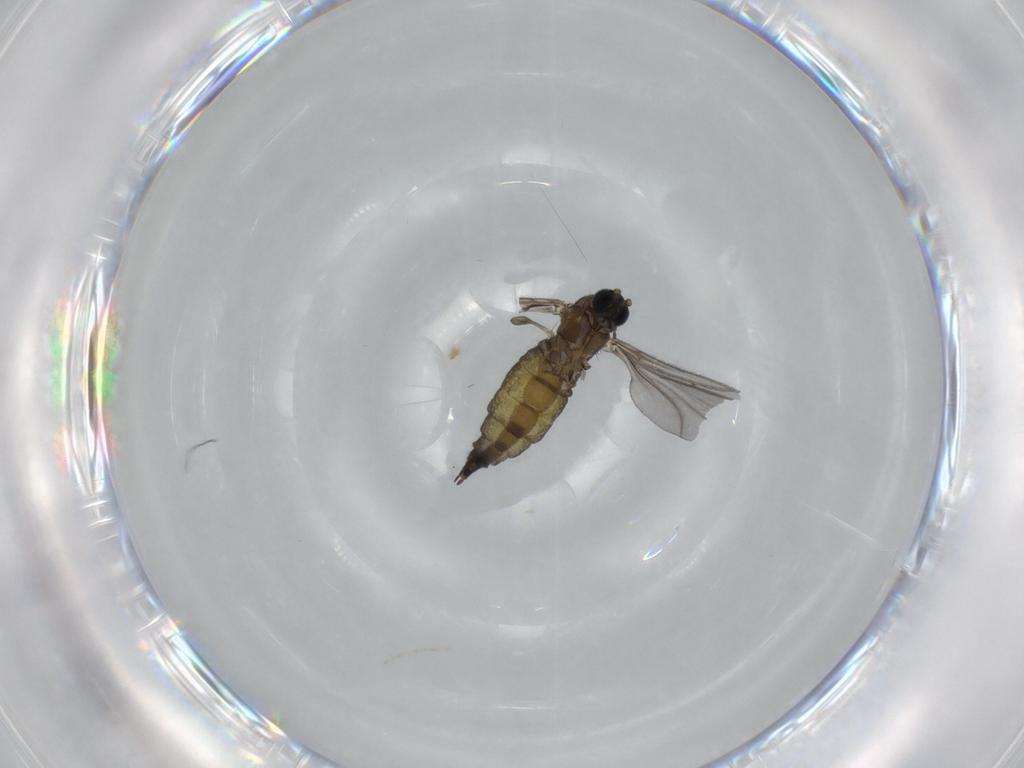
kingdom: Animalia
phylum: Arthropoda
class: Insecta
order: Diptera
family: Sciaridae
